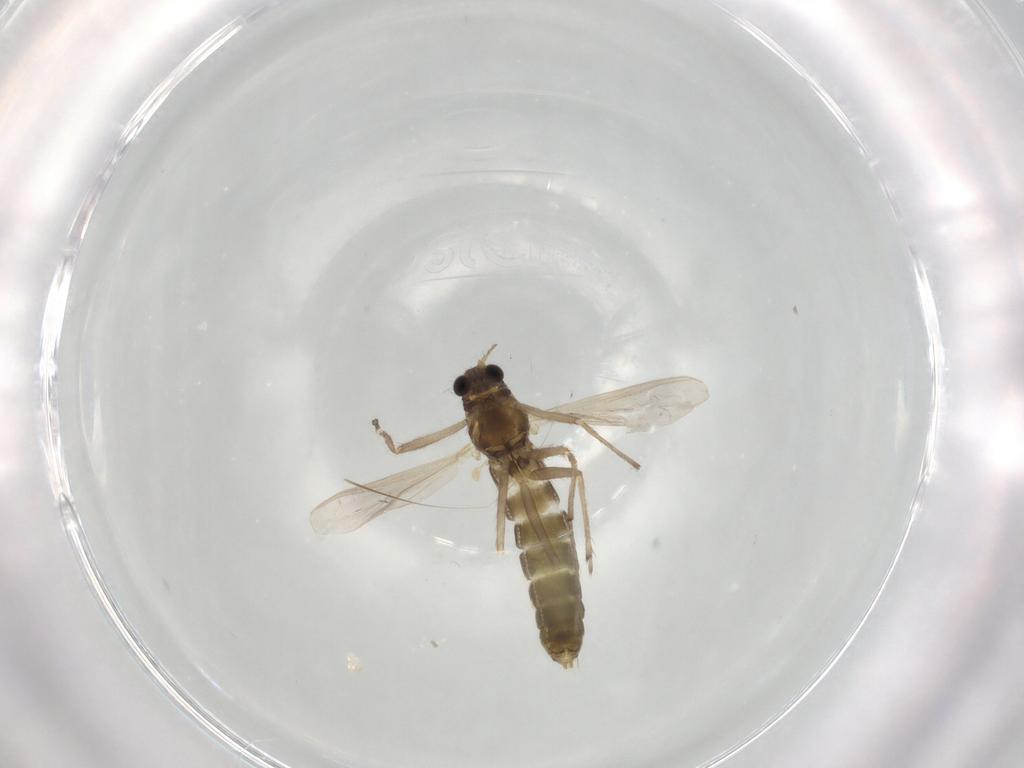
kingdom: Animalia
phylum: Arthropoda
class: Insecta
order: Diptera
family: Chironomidae
